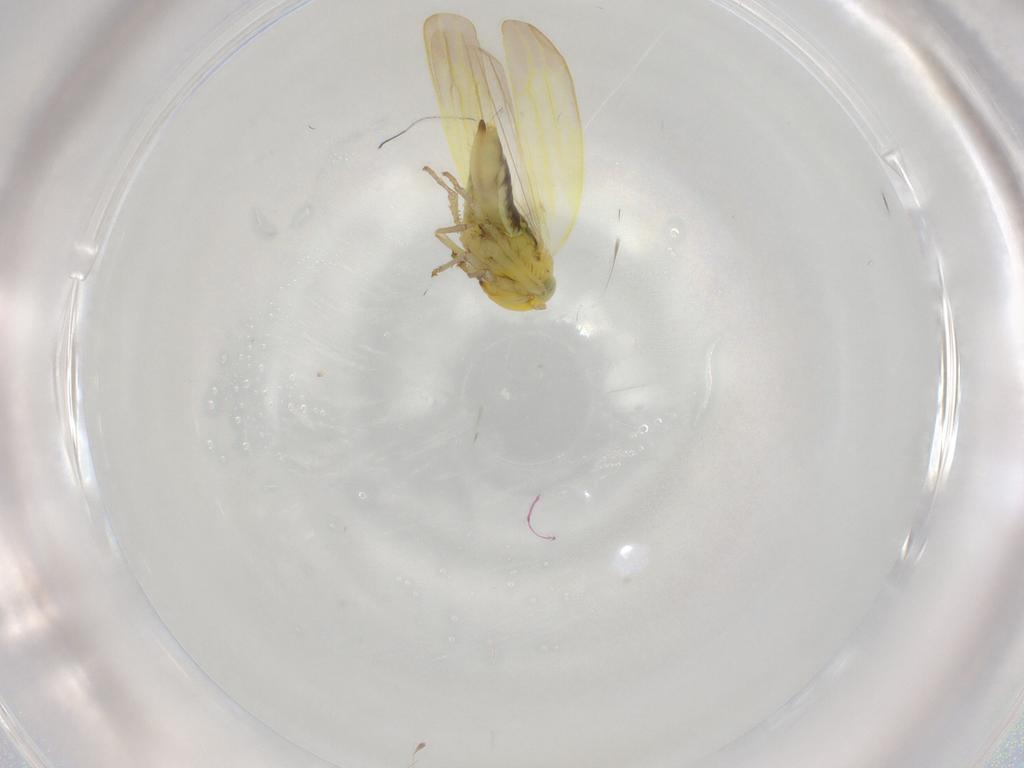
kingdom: Animalia
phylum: Arthropoda
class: Insecta
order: Hemiptera
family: Cicadellidae
